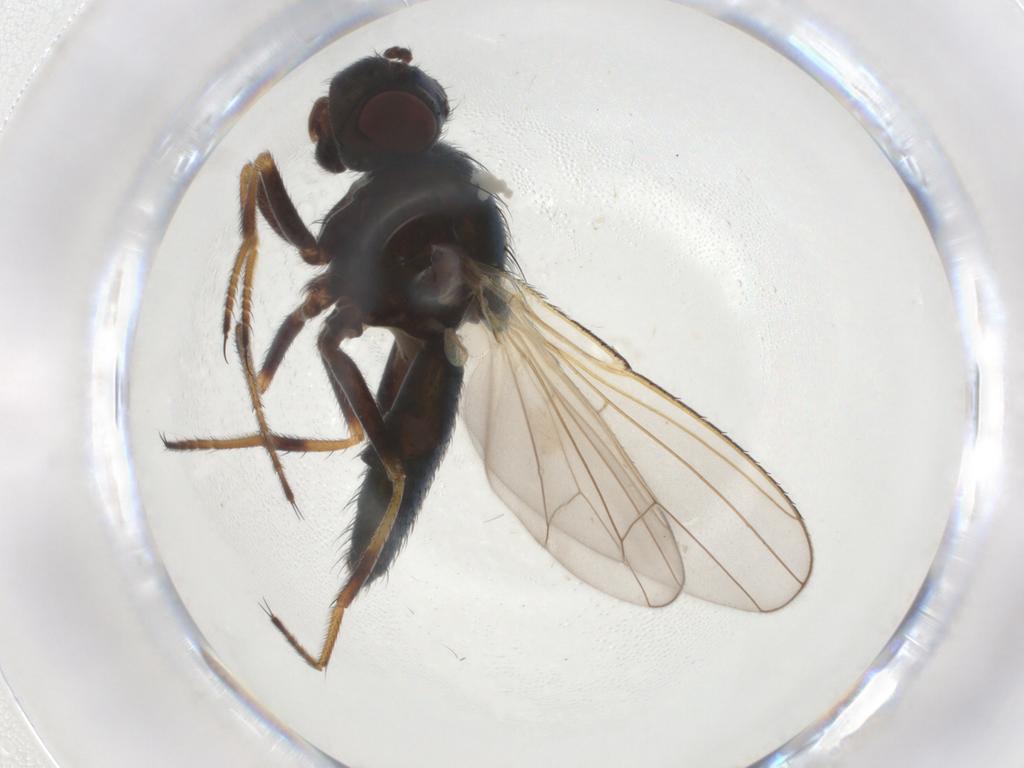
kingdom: Animalia
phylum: Arthropoda
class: Insecta
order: Diptera
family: Ephydridae
